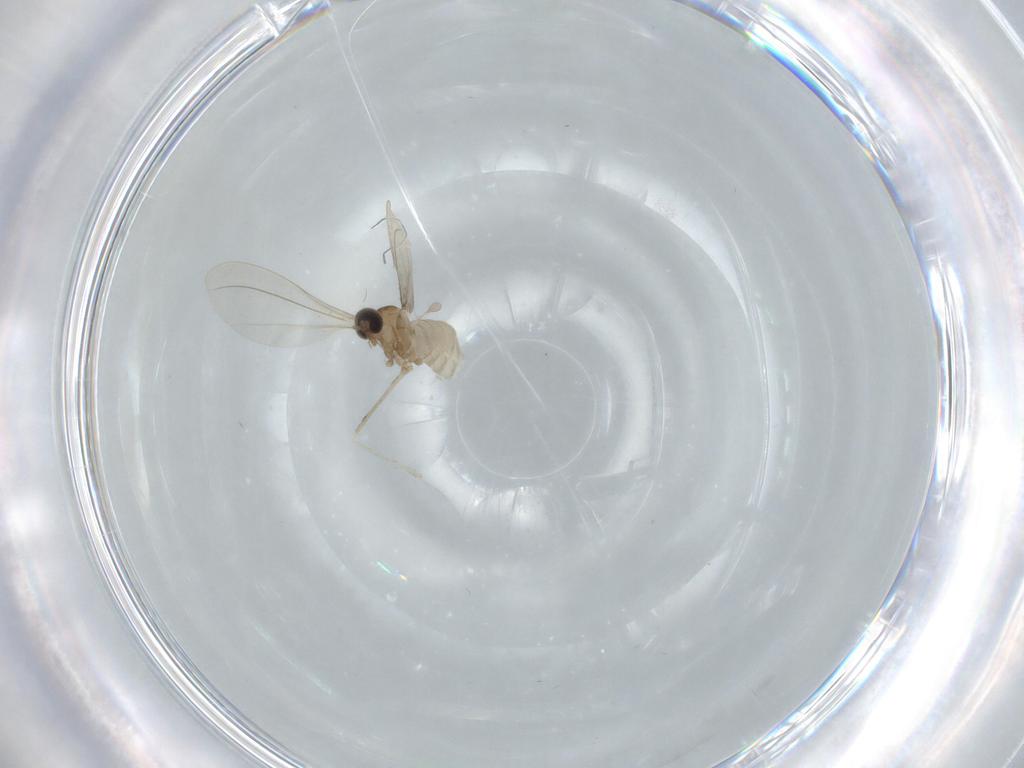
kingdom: Animalia
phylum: Arthropoda
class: Insecta
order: Diptera
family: Cecidomyiidae
